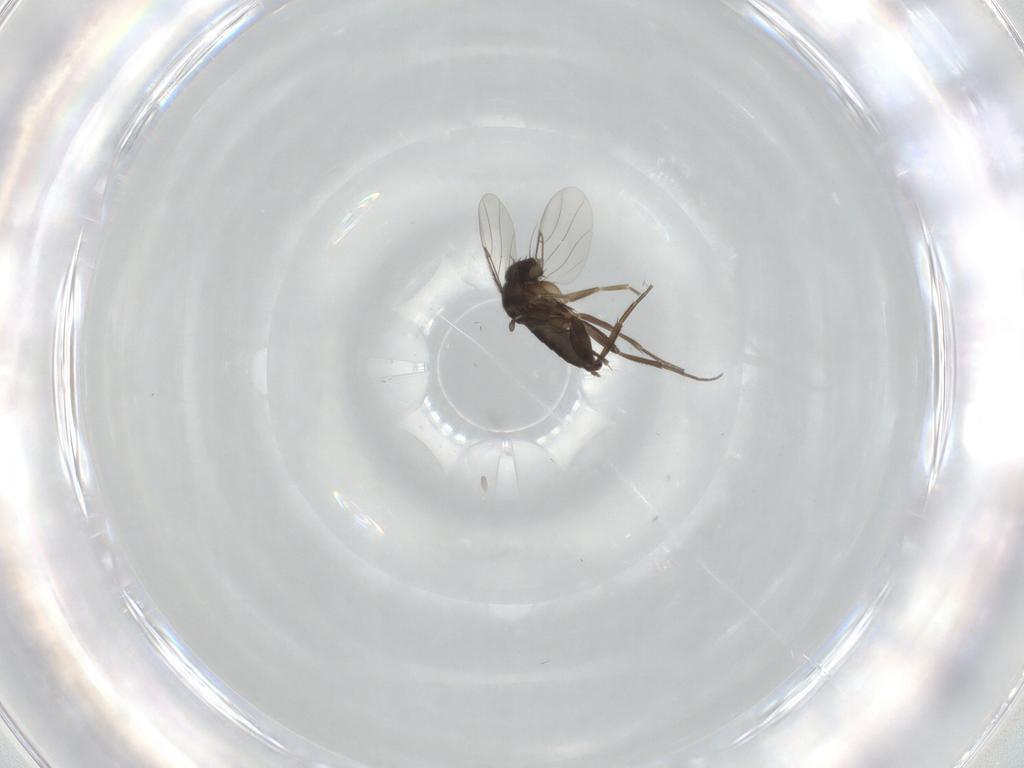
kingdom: Animalia
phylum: Arthropoda
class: Insecta
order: Diptera
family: Phoridae
